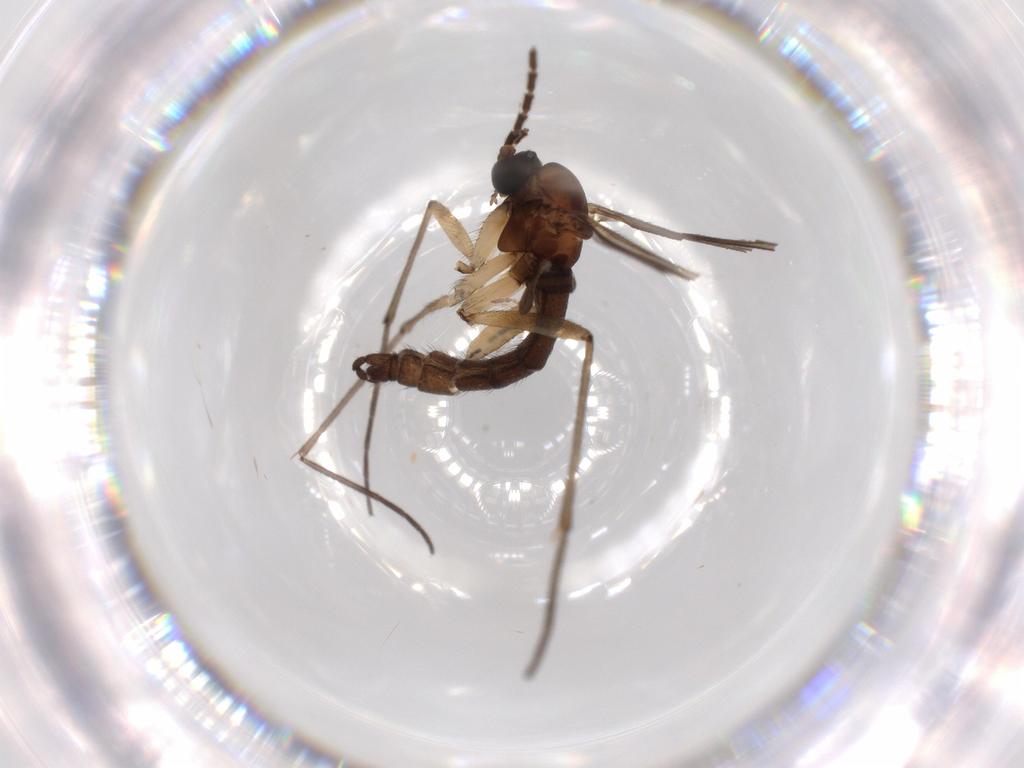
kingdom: Animalia
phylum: Arthropoda
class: Insecta
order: Diptera
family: Sciaridae
